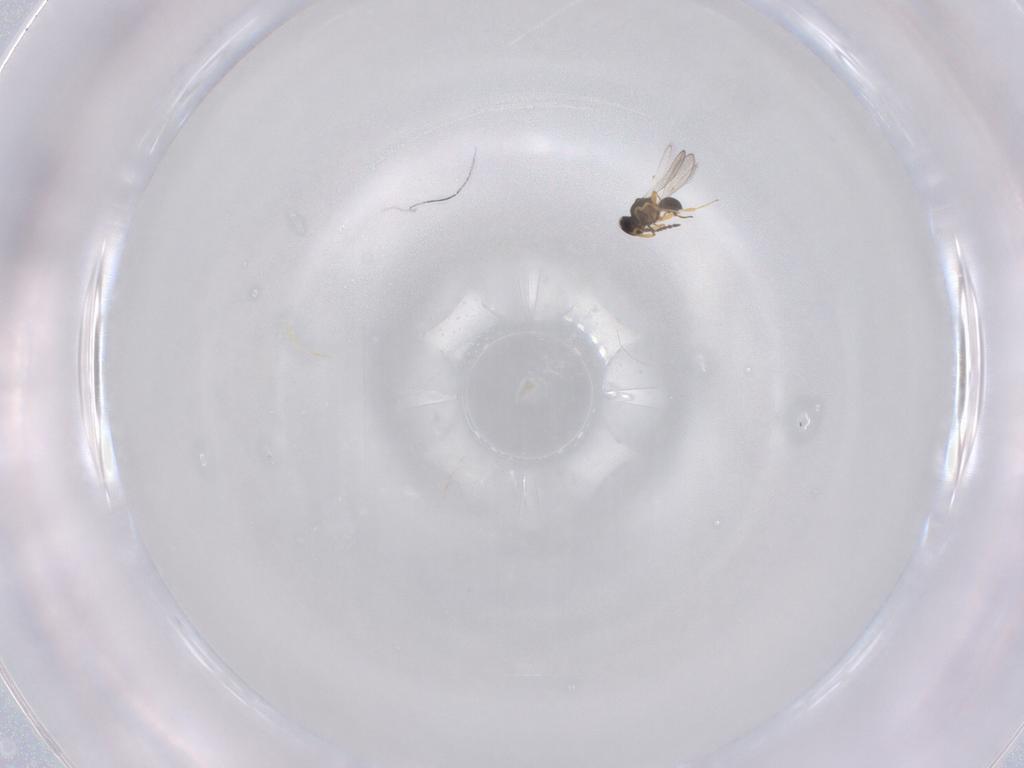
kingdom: Animalia
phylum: Arthropoda
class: Insecta
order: Hymenoptera
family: Platygastridae
